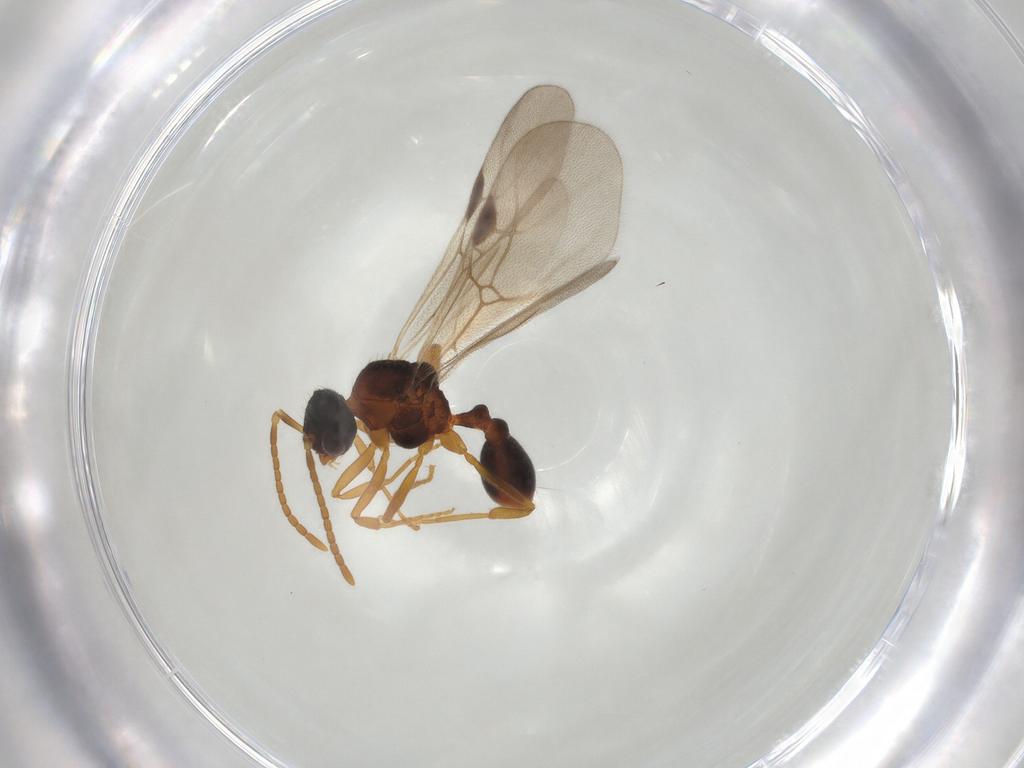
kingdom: Animalia
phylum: Arthropoda
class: Insecta
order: Hymenoptera
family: Formicidae
